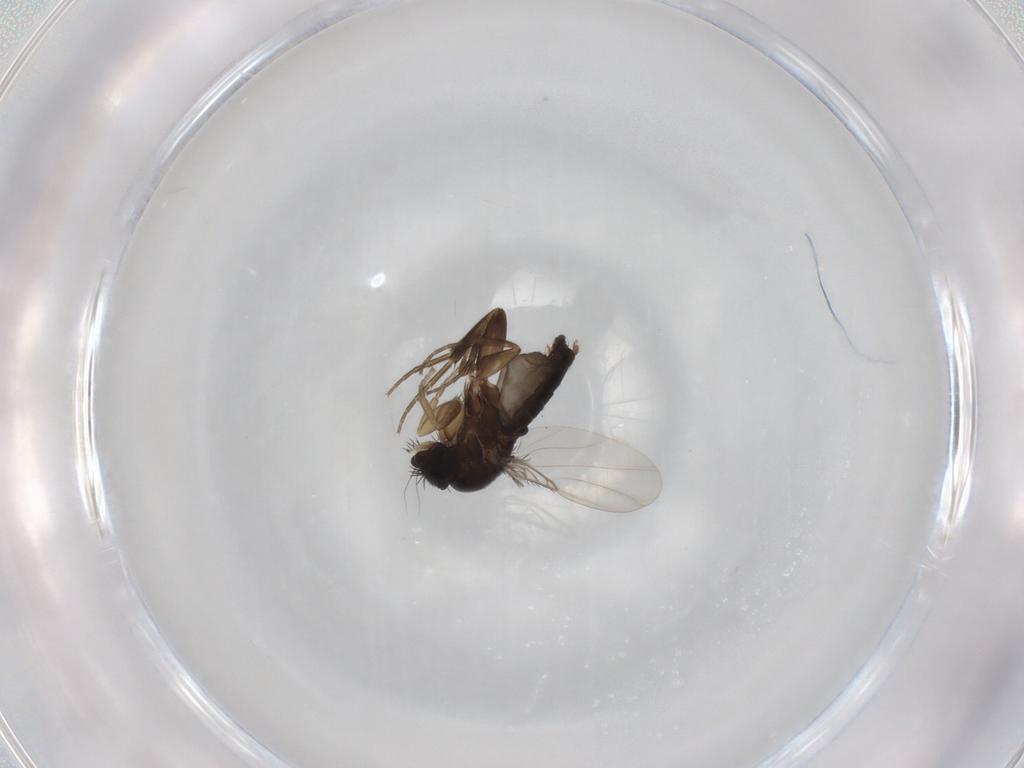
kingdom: Animalia
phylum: Arthropoda
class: Insecta
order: Diptera
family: Phoridae
